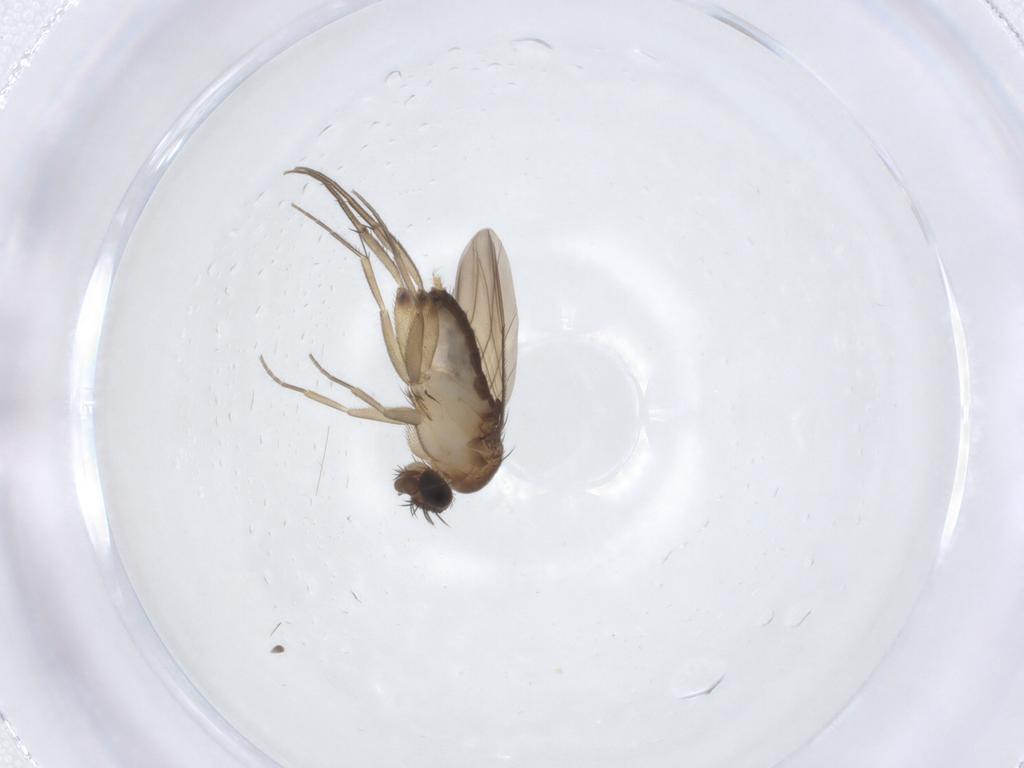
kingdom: Animalia
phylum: Arthropoda
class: Insecta
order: Diptera
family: Phoridae
